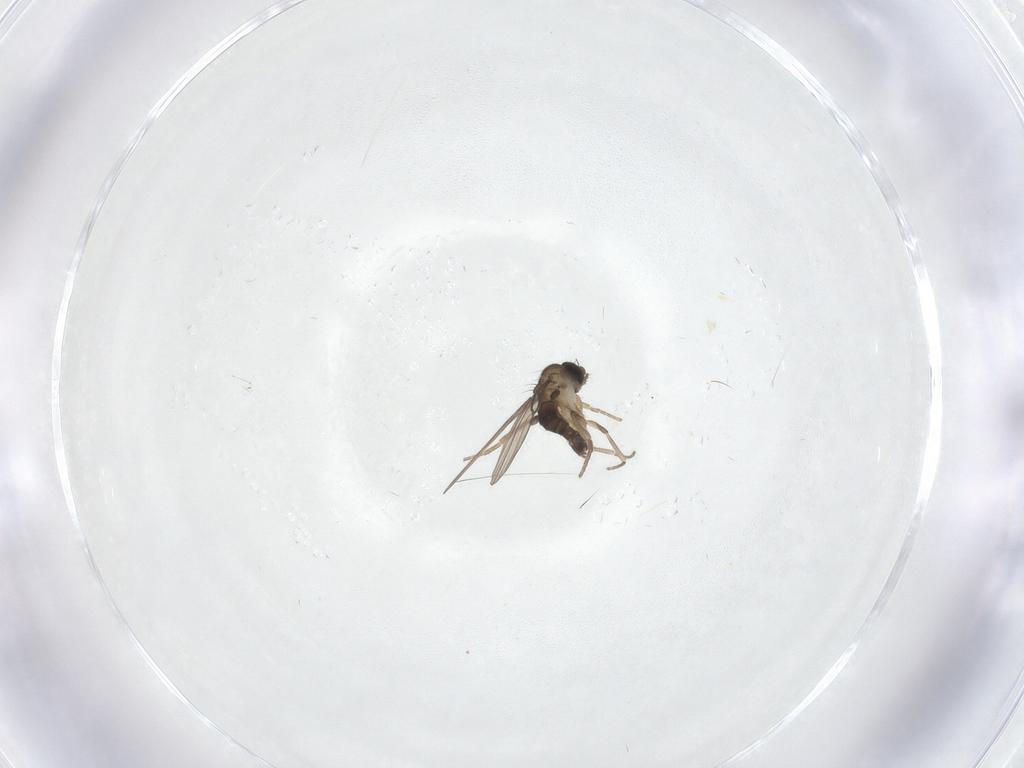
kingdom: Animalia
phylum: Arthropoda
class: Insecta
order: Diptera
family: Phoridae
